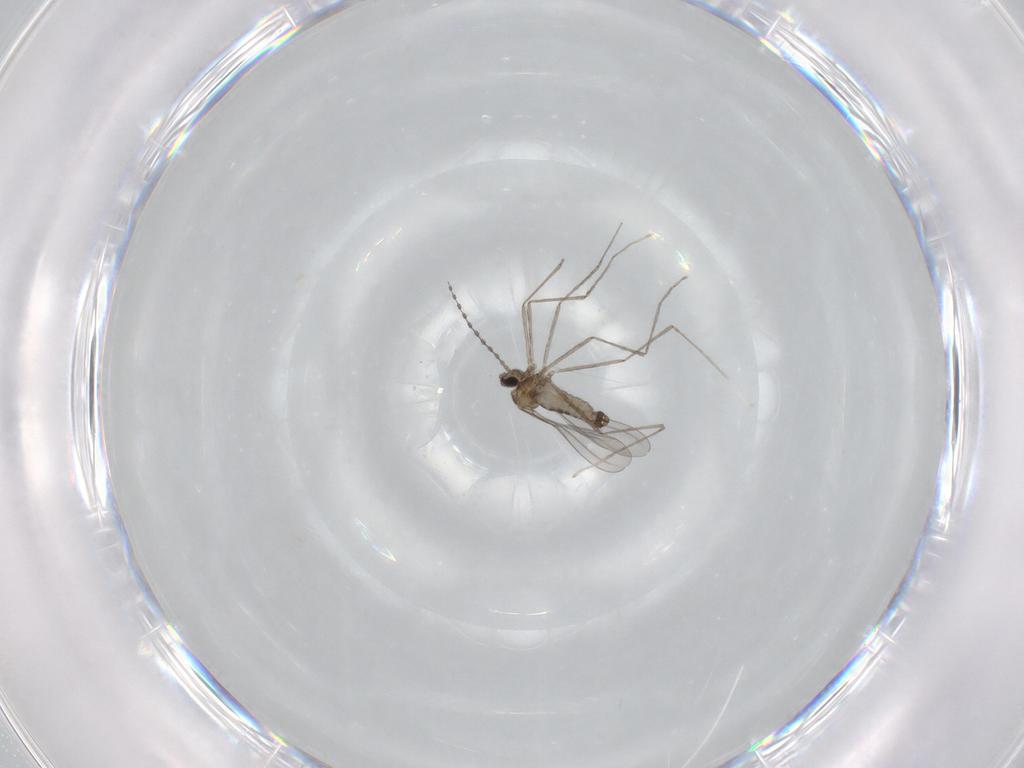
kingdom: Animalia
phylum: Arthropoda
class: Insecta
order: Diptera
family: Cecidomyiidae
